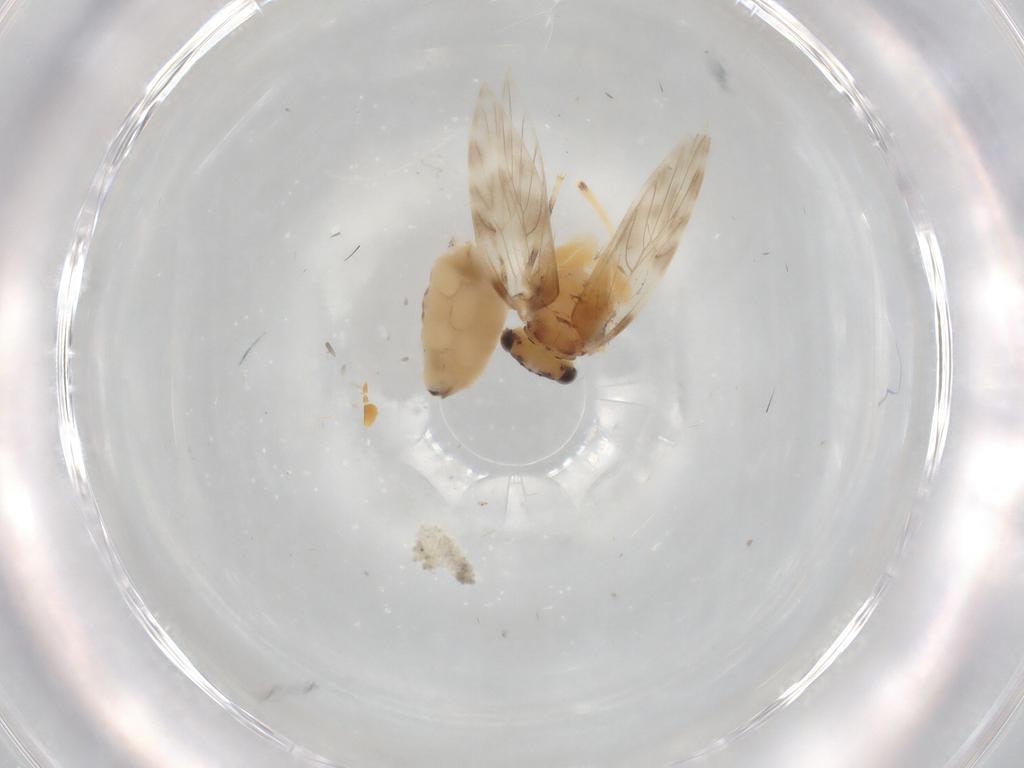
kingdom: Animalia
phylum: Arthropoda
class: Insecta
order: Psocodea
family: Lepidopsocidae
